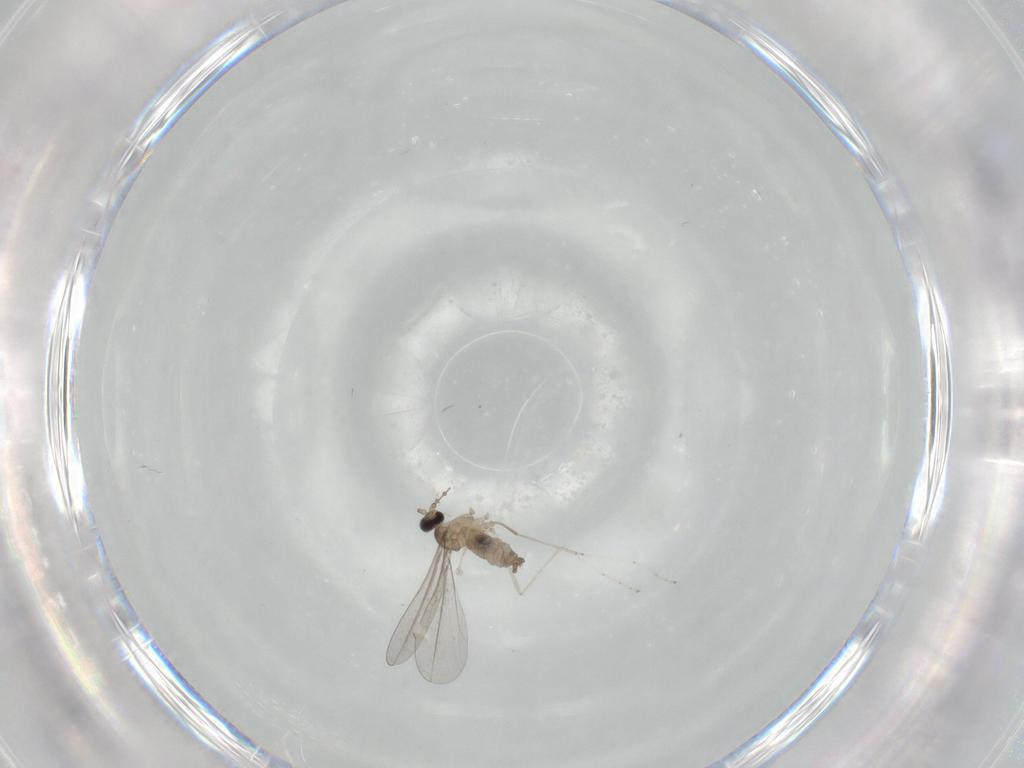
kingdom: Animalia
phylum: Arthropoda
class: Insecta
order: Diptera
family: Cecidomyiidae
